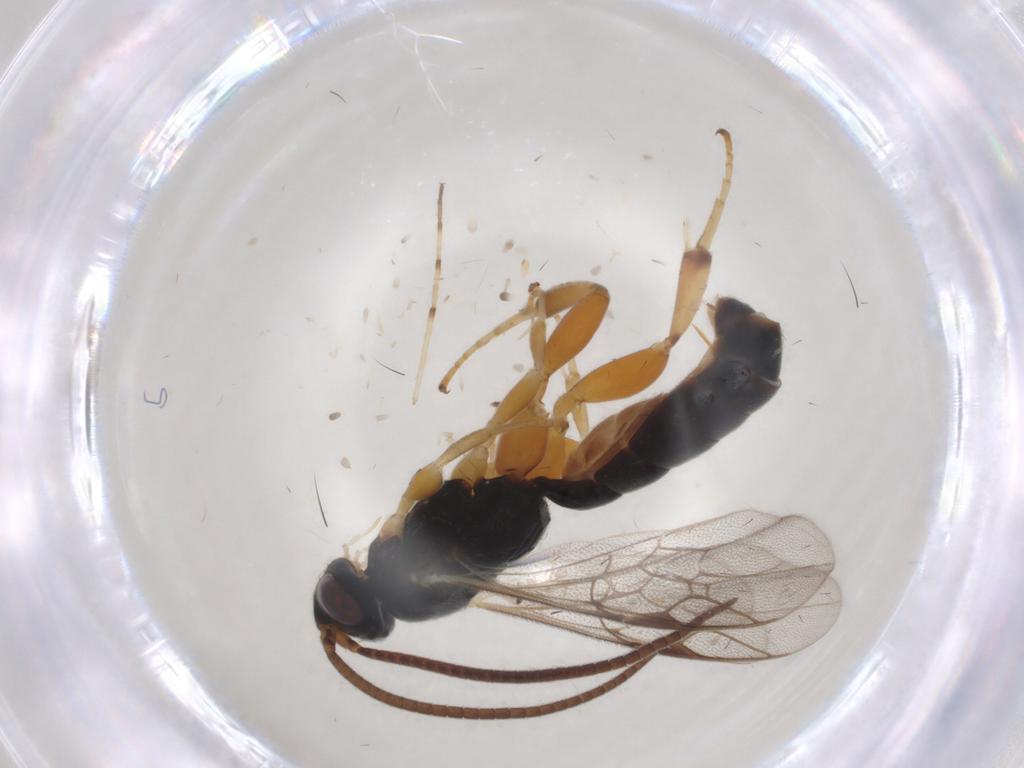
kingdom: Animalia
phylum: Arthropoda
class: Insecta
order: Hymenoptera
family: Trichogrammatidae
